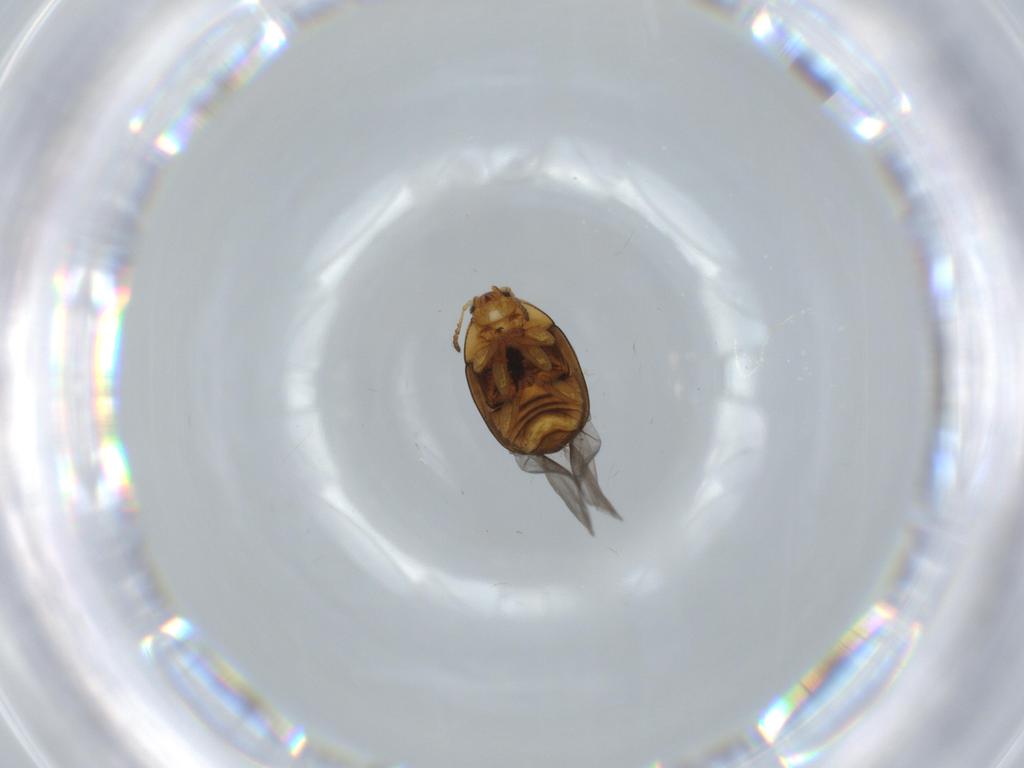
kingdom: Animalia
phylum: Arthropoda
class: Insecta
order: Coleoptera
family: Chrysomelidae
